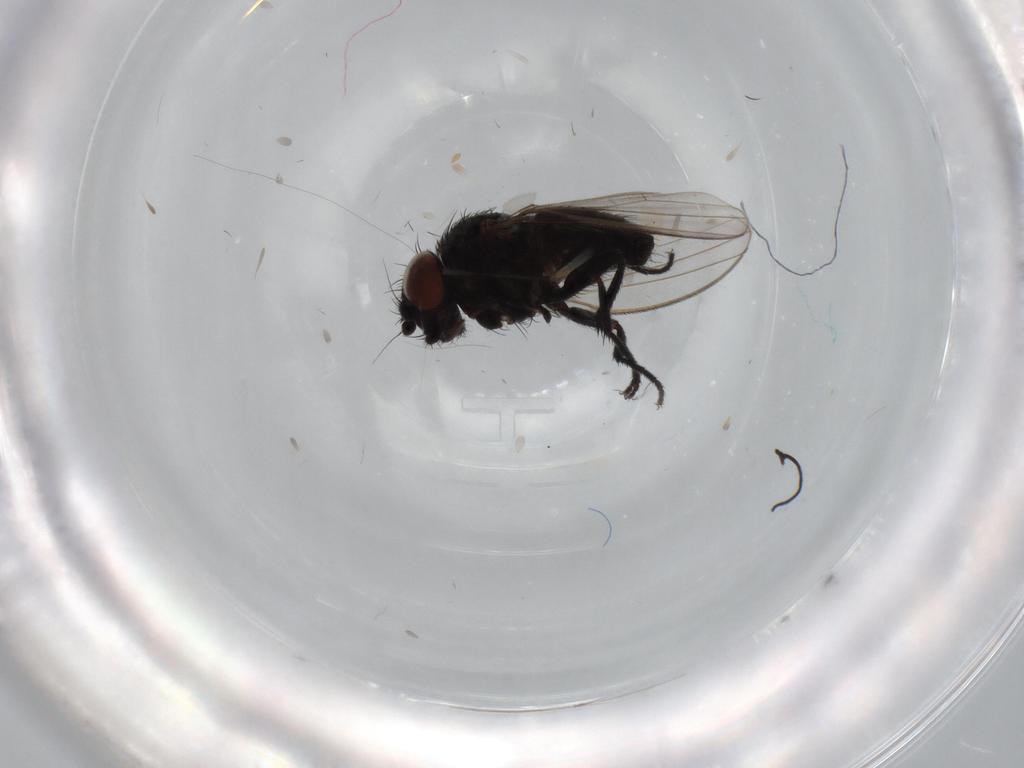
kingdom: Animalia
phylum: Arthropoda
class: Insecta
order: Diptera
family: Sciaridae
